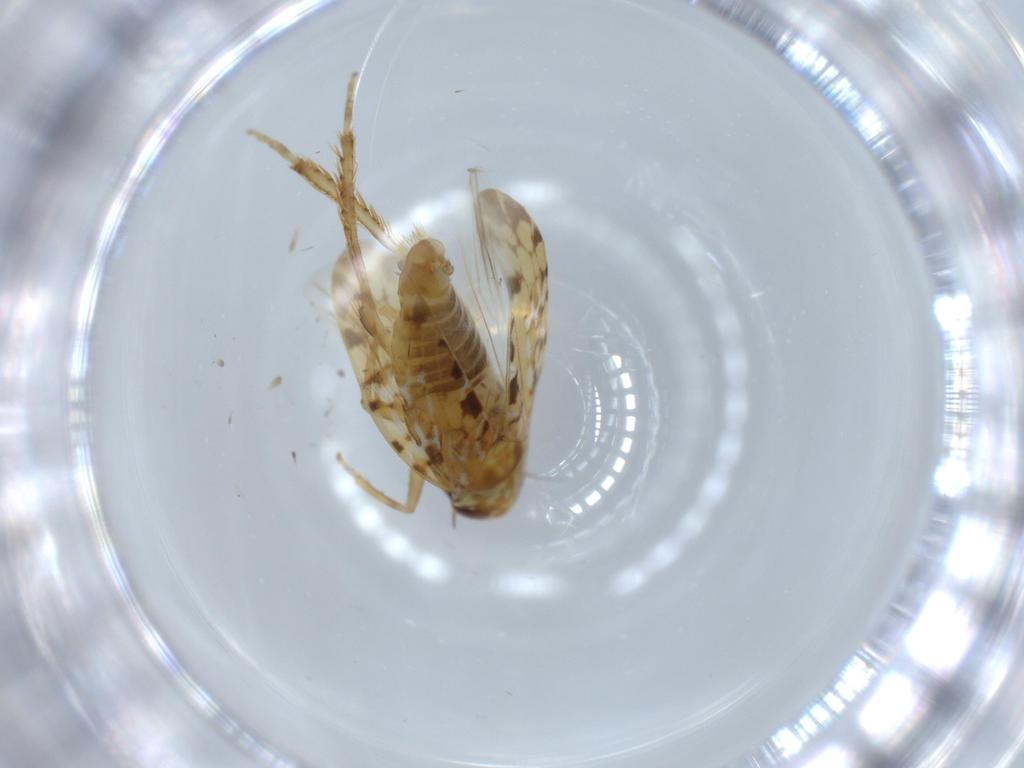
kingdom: Animalia
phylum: Arthropoda
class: Insecta
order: Hemiptera
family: Cicadellidae
